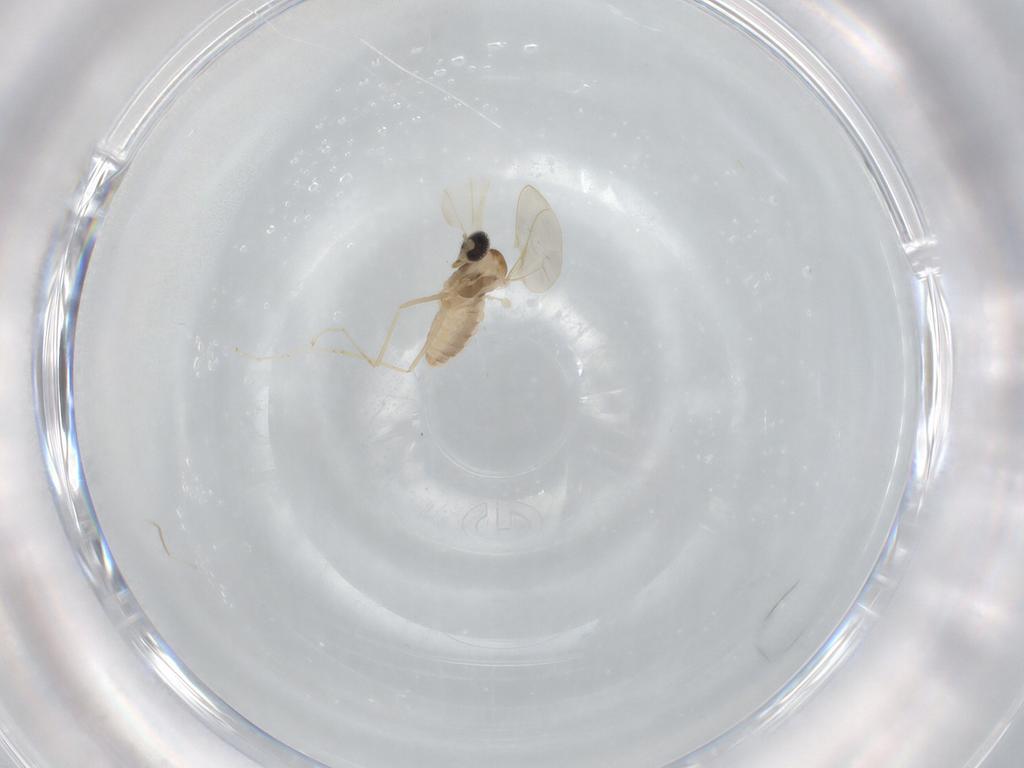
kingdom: Animalia
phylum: Arthropoda
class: Insecta
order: Diptera
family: Cecidomyiidae
